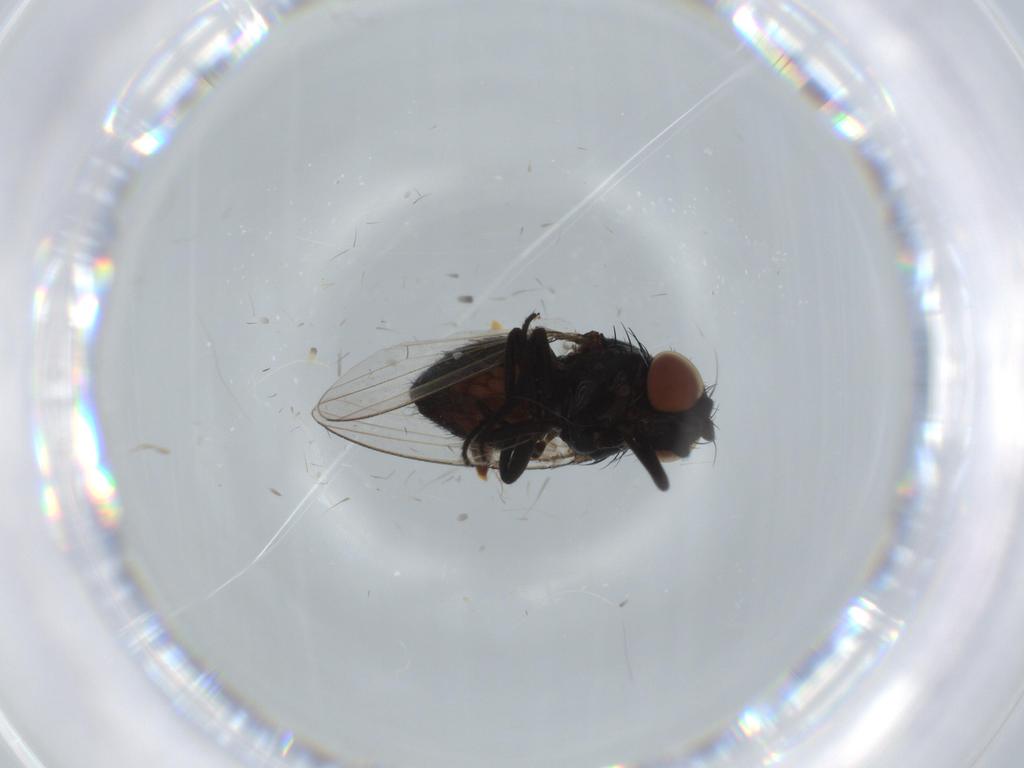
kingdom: Animalia
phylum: Arthropoda
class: Insecta
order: Diptera
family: Milichiidae
